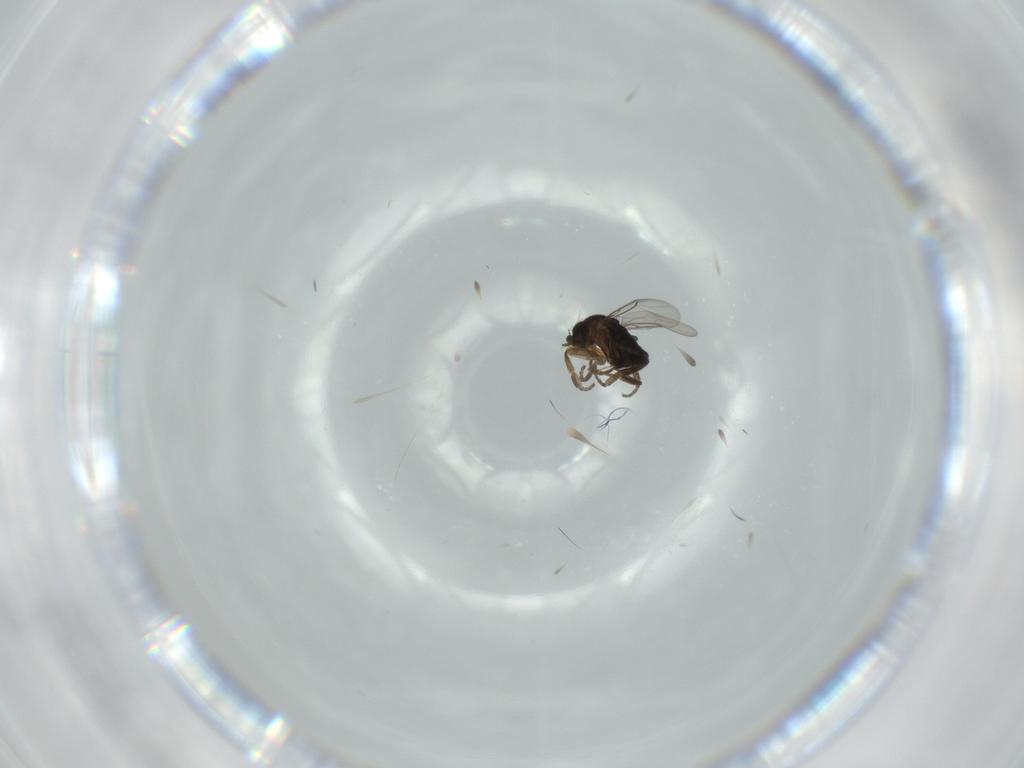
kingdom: Animalia
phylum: Arthropoda
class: Insecta
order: Diptera
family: Phoridae
